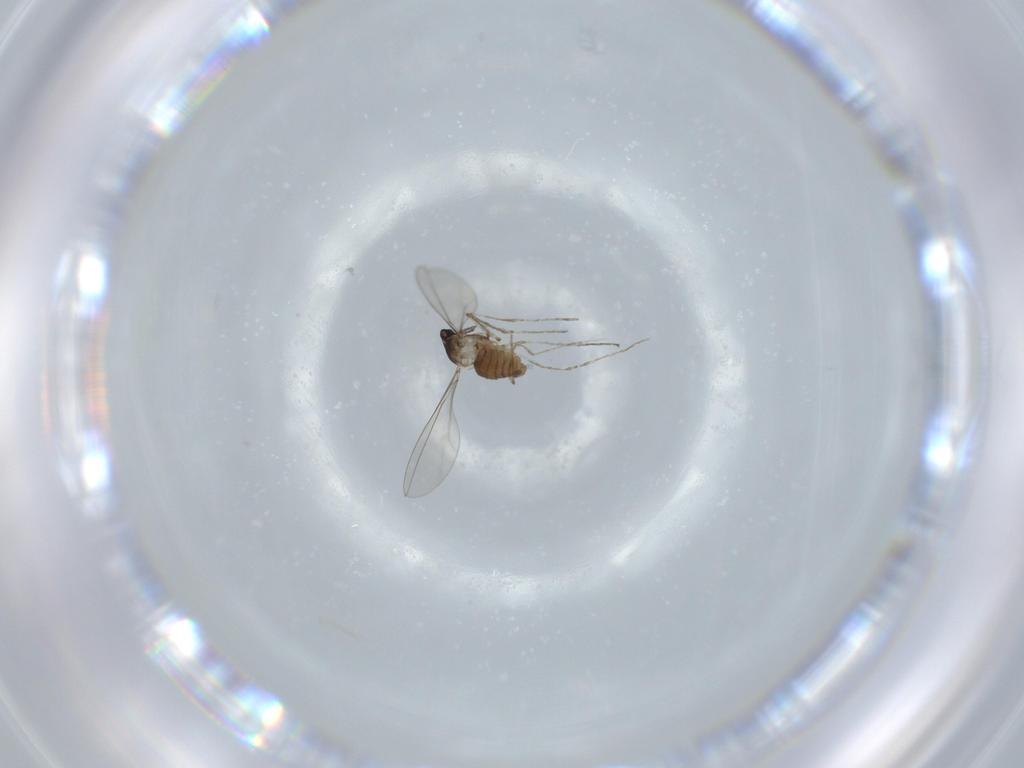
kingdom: Animalia
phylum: Arthropoda
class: Insecta
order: Diptera
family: Cecidomyiidae
